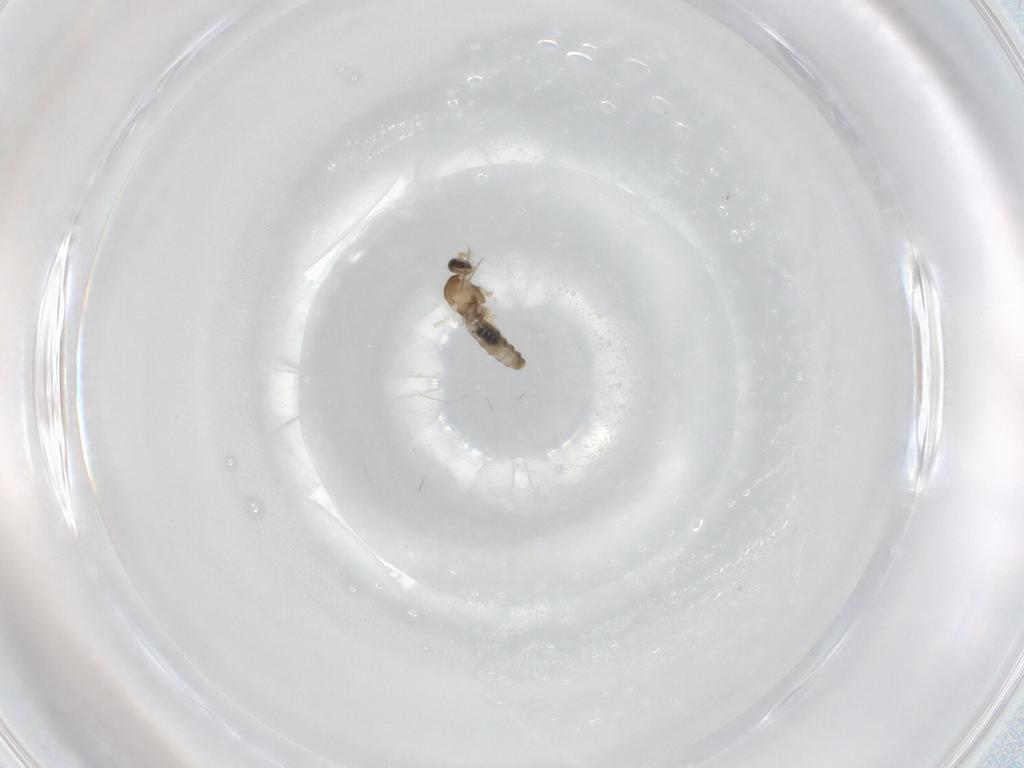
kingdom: Animalia
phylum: Arthropoda
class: Insecta
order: Diptera
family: Cecidomyiidae
